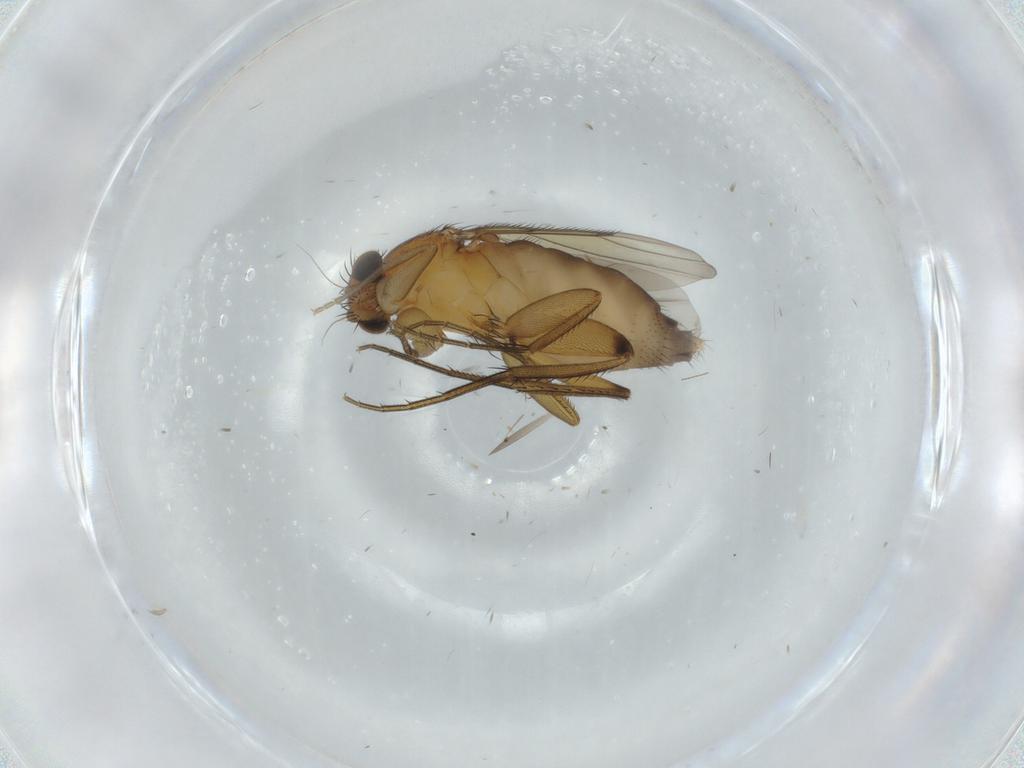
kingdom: Animalia
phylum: Arthropoda
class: Insecta
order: Diptera
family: Phoridae
